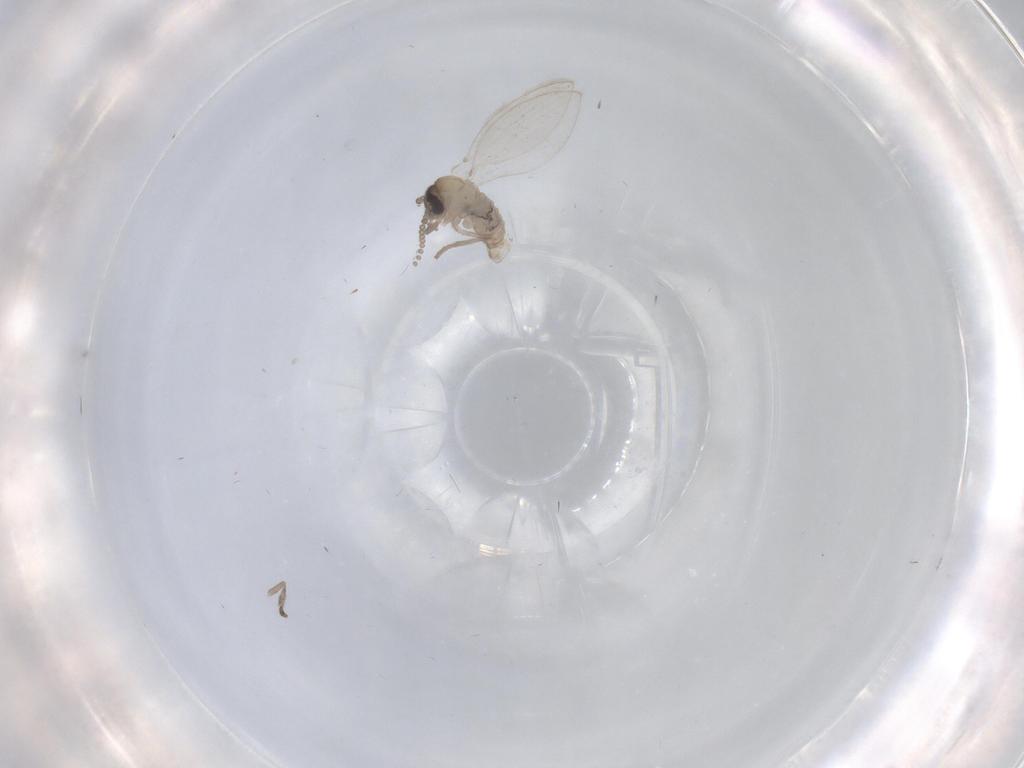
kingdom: Animalia
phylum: Arthropoda
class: Insecta
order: Diptera
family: Psychodidae
